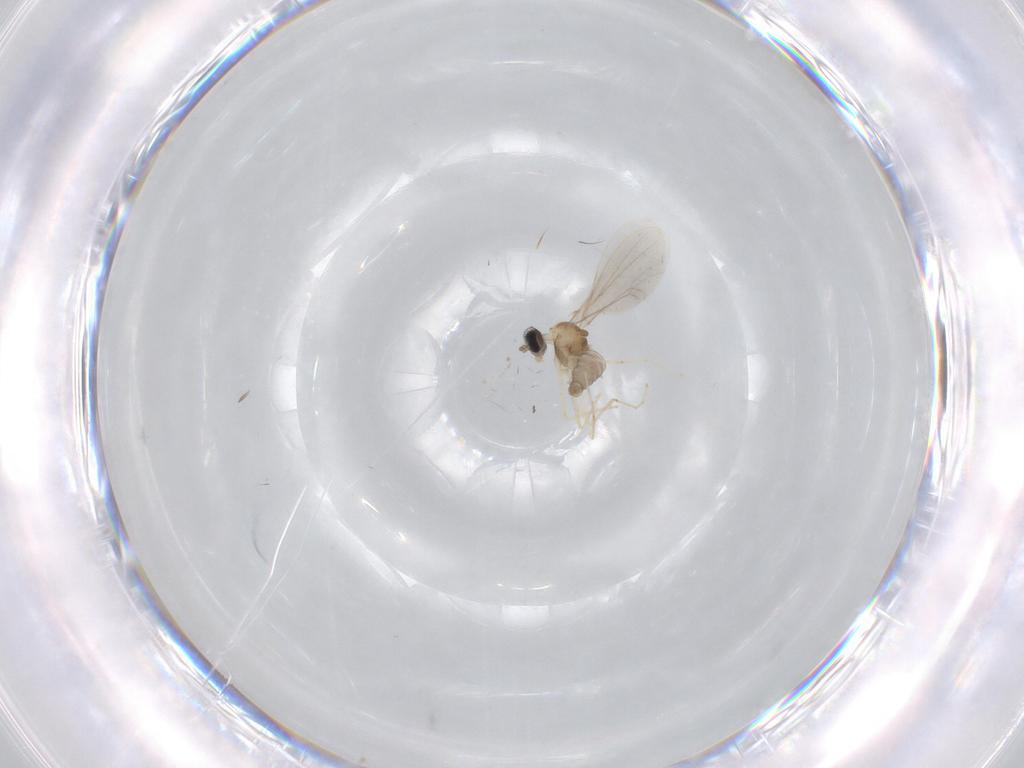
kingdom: Animalia
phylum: Arthropoda
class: Insecta
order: Diptera
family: Cecidomyiidae
